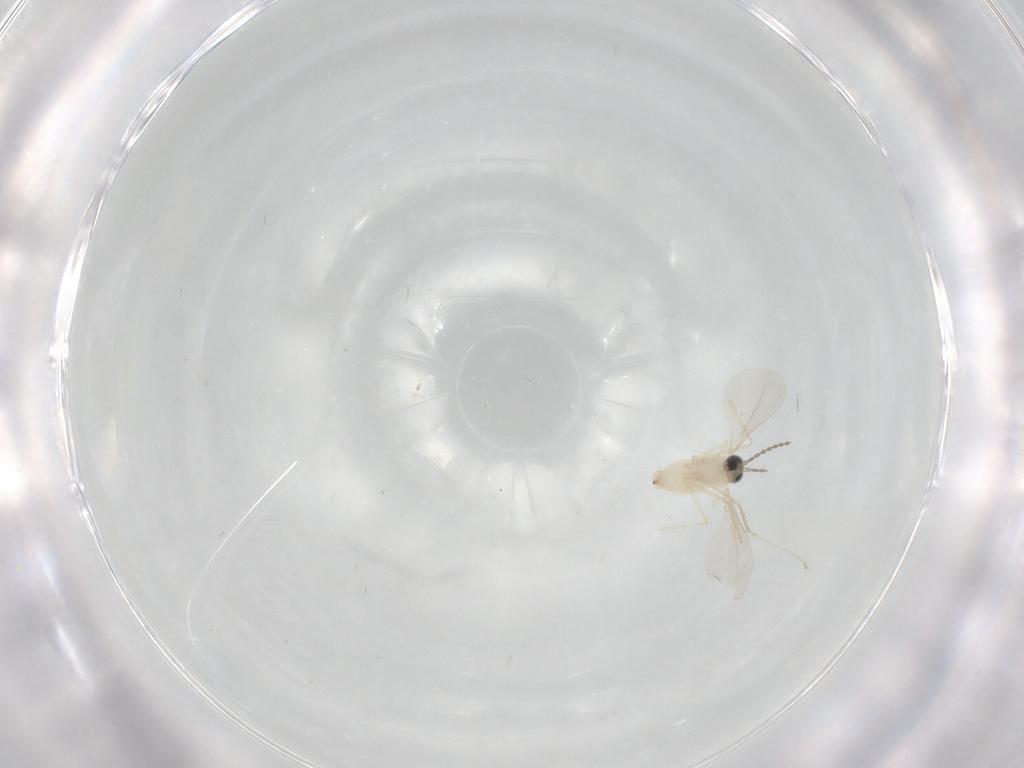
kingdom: Animalia
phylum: Arthropoda
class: Insecta
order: Diptera
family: Cecidomyiidae
